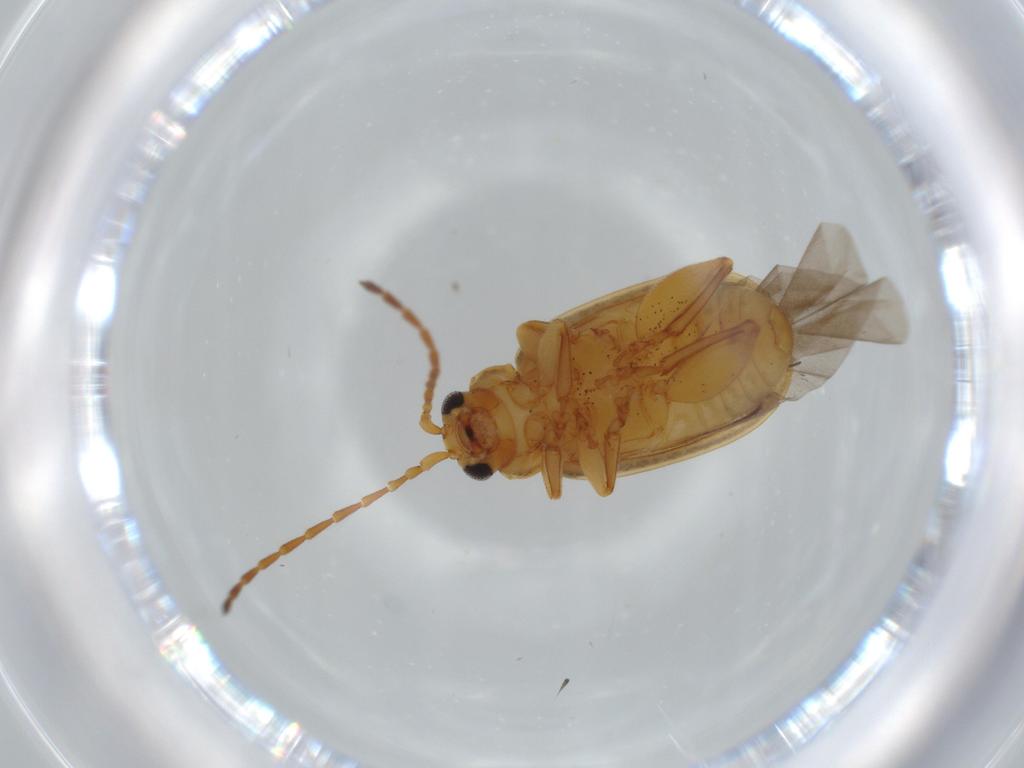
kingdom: Animalia
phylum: Arthropoda
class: Insecta
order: Coleoptera
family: Chrysomelidae
